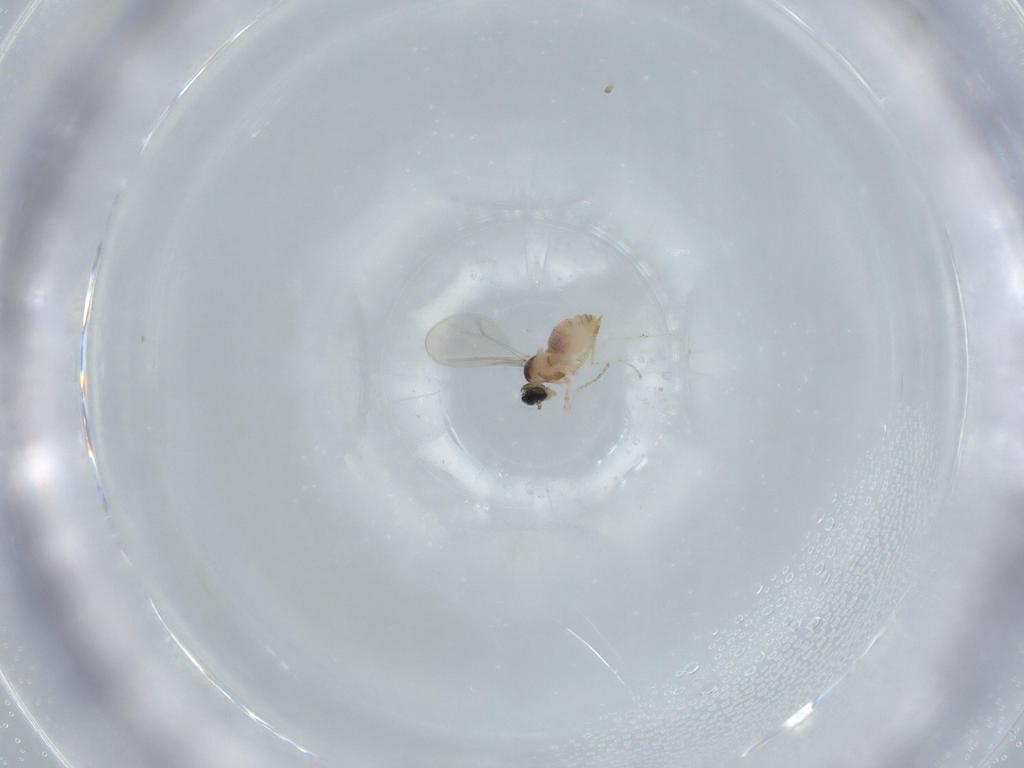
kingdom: Animalia
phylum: Arthropoda
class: Insecta
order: Diptera
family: Cecidomyiidae
